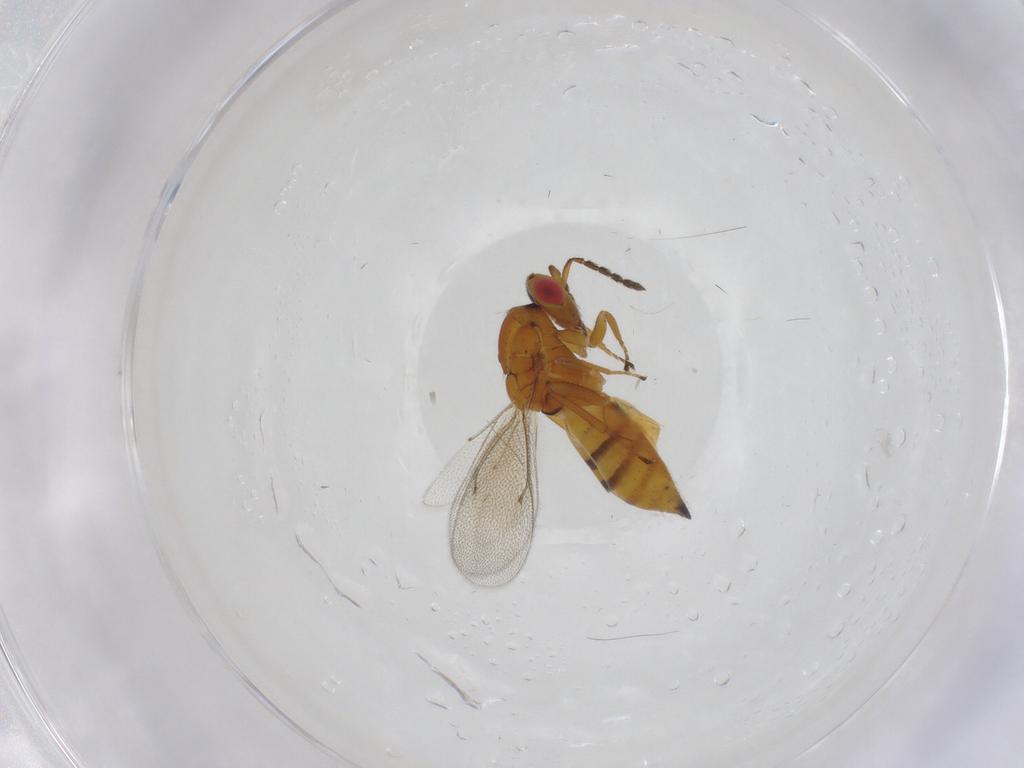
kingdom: Animalia
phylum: Arthropoda
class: Insecta
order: Hymenoptera
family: Eulophidae
